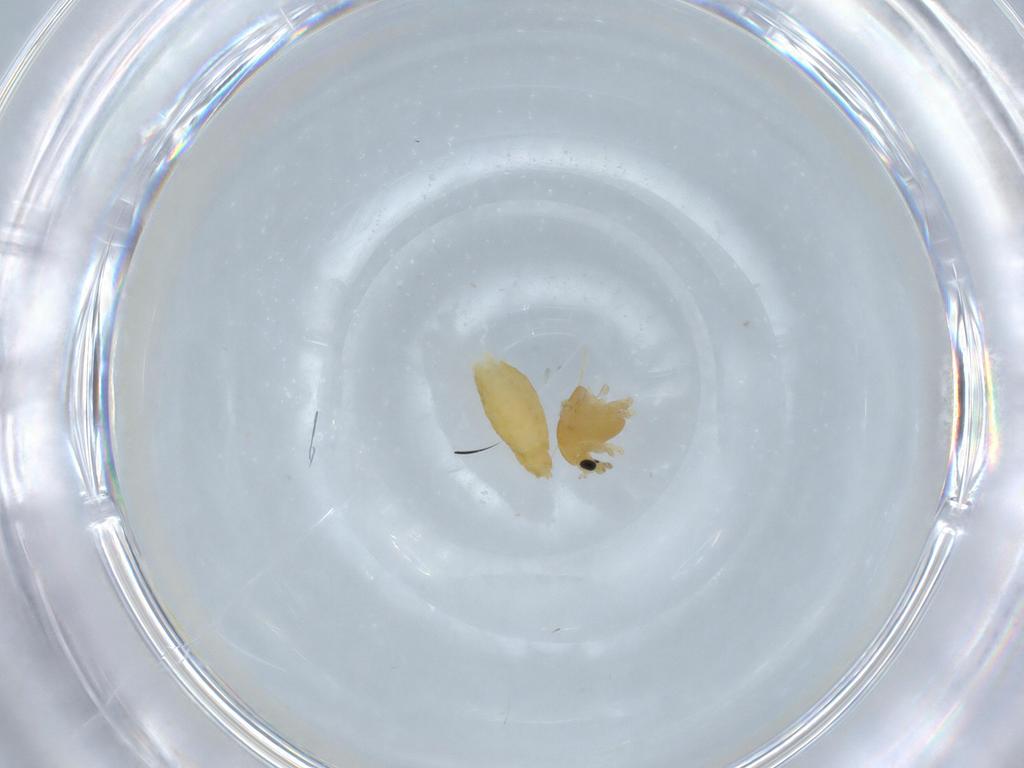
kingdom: Animalia
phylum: Arthropoda
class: Insecta
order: Diptera
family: Chironomidae
